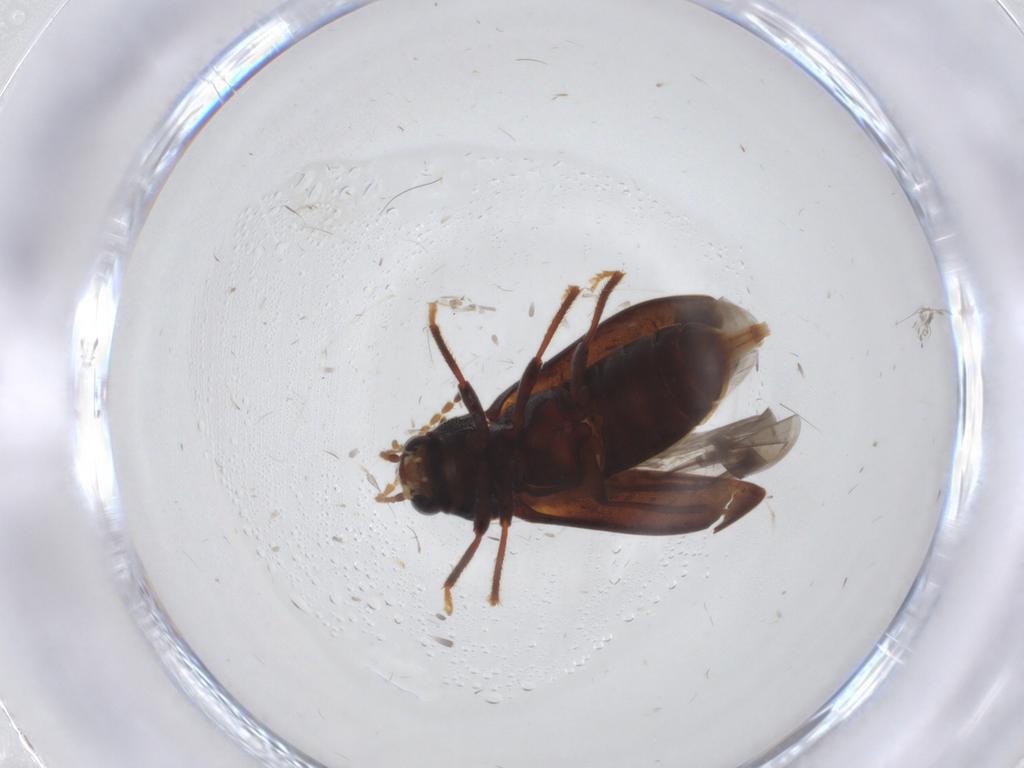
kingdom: Animalia
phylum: Arthropoda
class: Insecta
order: Coleoptera
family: Ptilodactylidae
